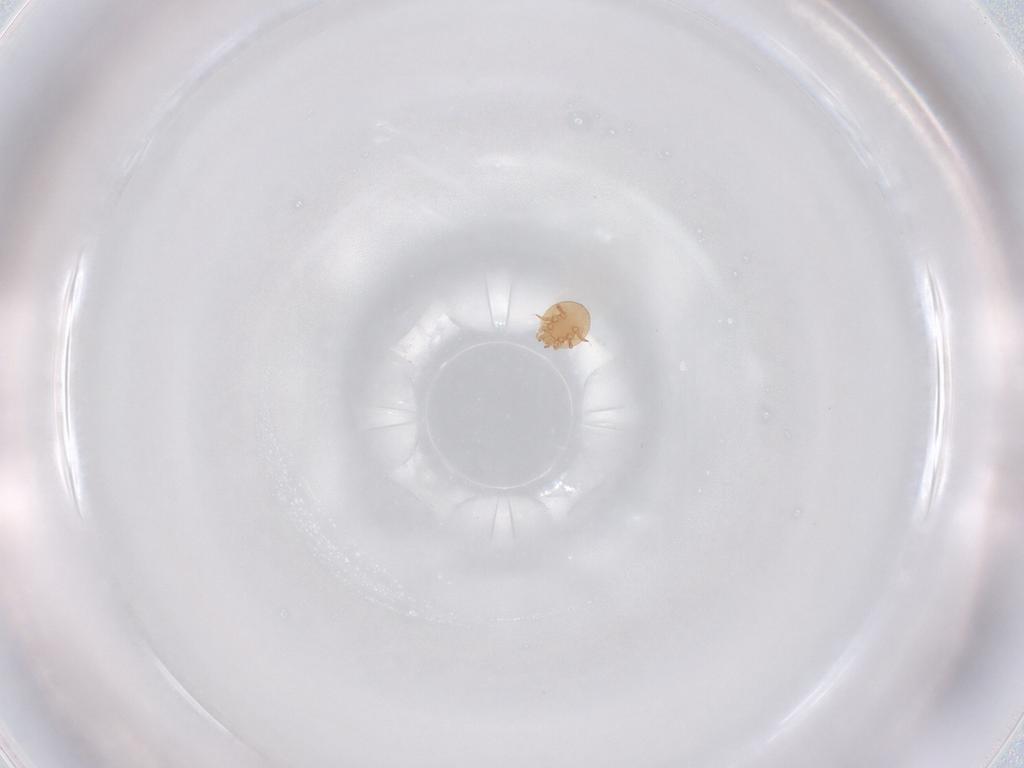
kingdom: Animalia
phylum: Arthropoda
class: Arachnida
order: Mesostigmata
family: Trematuridae
